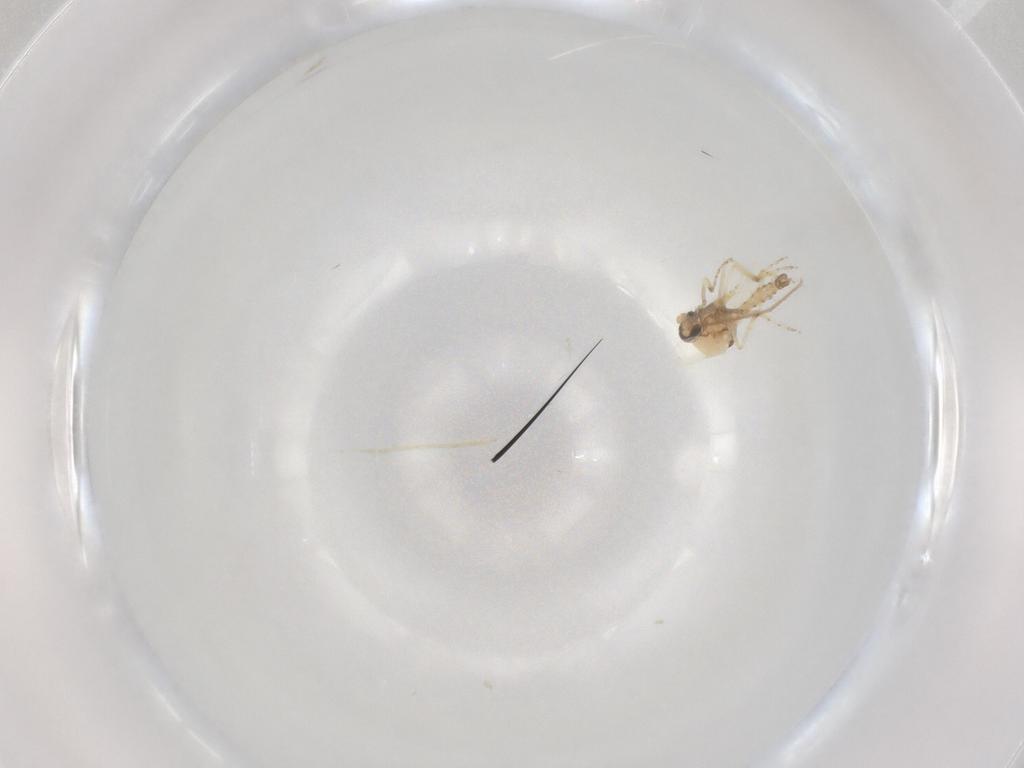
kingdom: Animalia
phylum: Arthropoda
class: Insecta
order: Diptera
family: Ceratopogonidae
